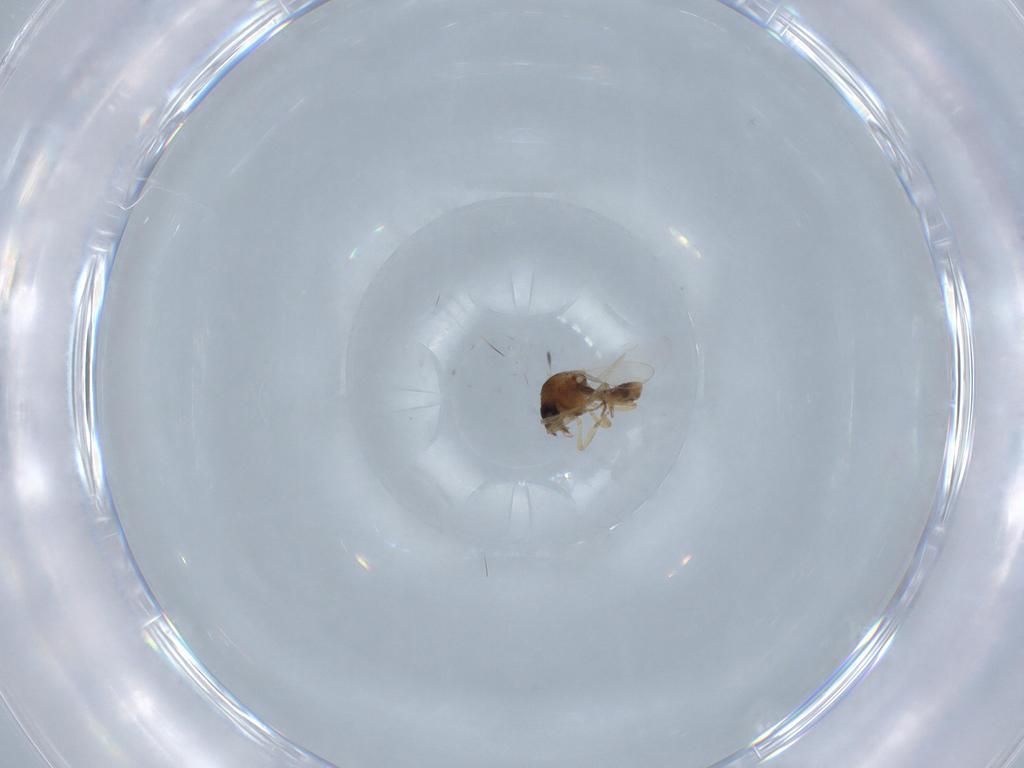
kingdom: Animalia
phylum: Arthropoda
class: Insecta
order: Diptera
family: Ceratopogonidae
